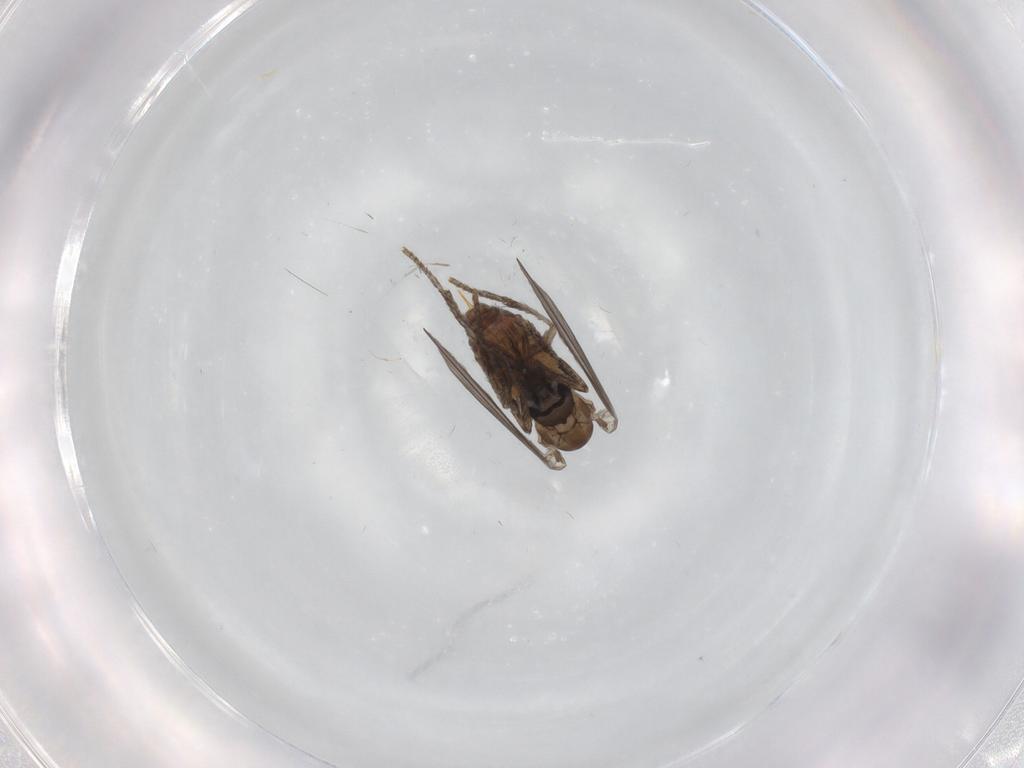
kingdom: Animalia
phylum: Arthropoda
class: Insecta
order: Diptera
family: Psychodidae
